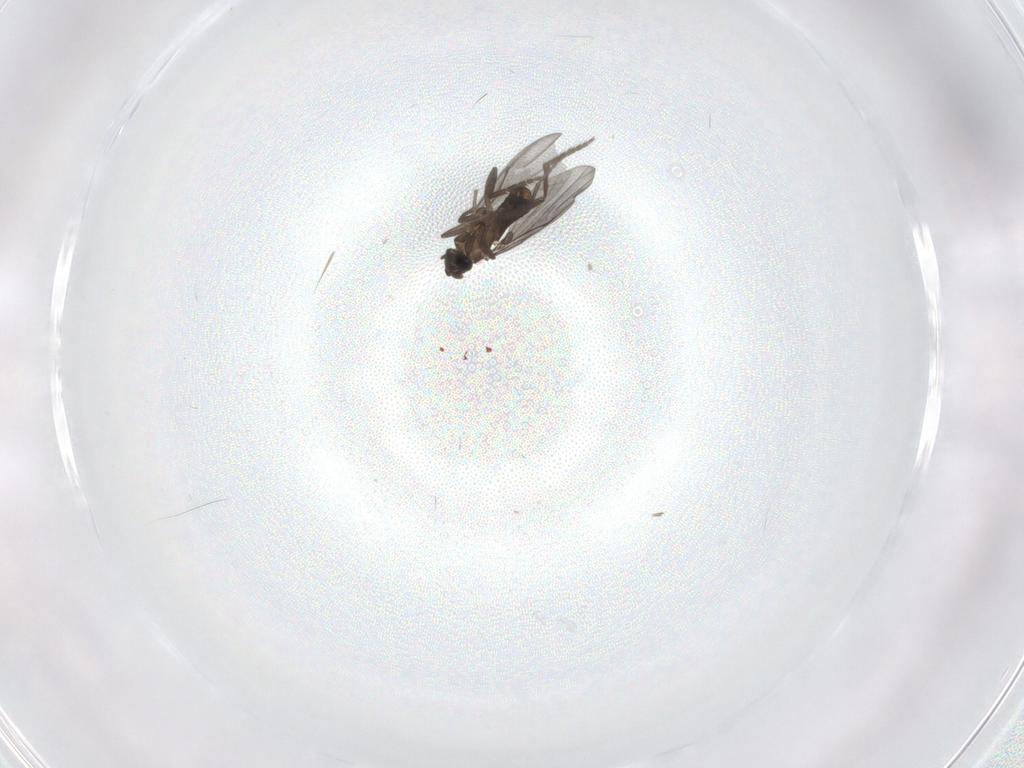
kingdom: Animalia
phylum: Arthropoda
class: Insecta
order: Diptera
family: Phoridae
